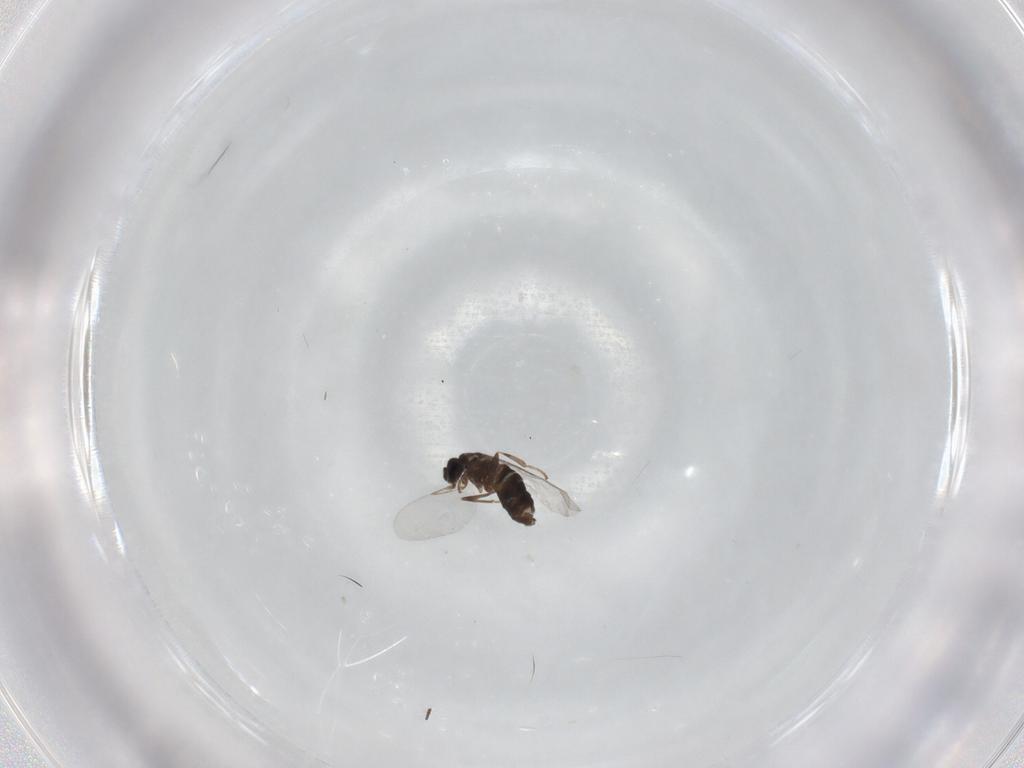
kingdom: Animalia
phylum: Arthropoda
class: Insecta
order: Diptera
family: Scatopsidae
